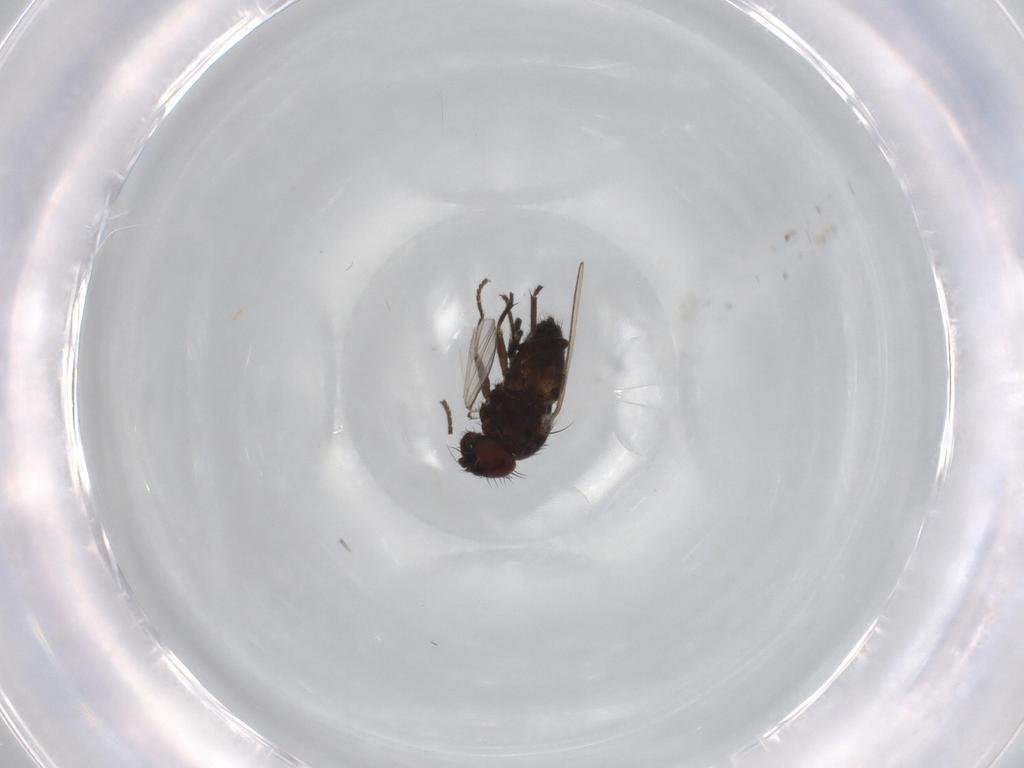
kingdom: Animalia
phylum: Arthropoda
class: Insecta
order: Diptera
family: Milichiidae
